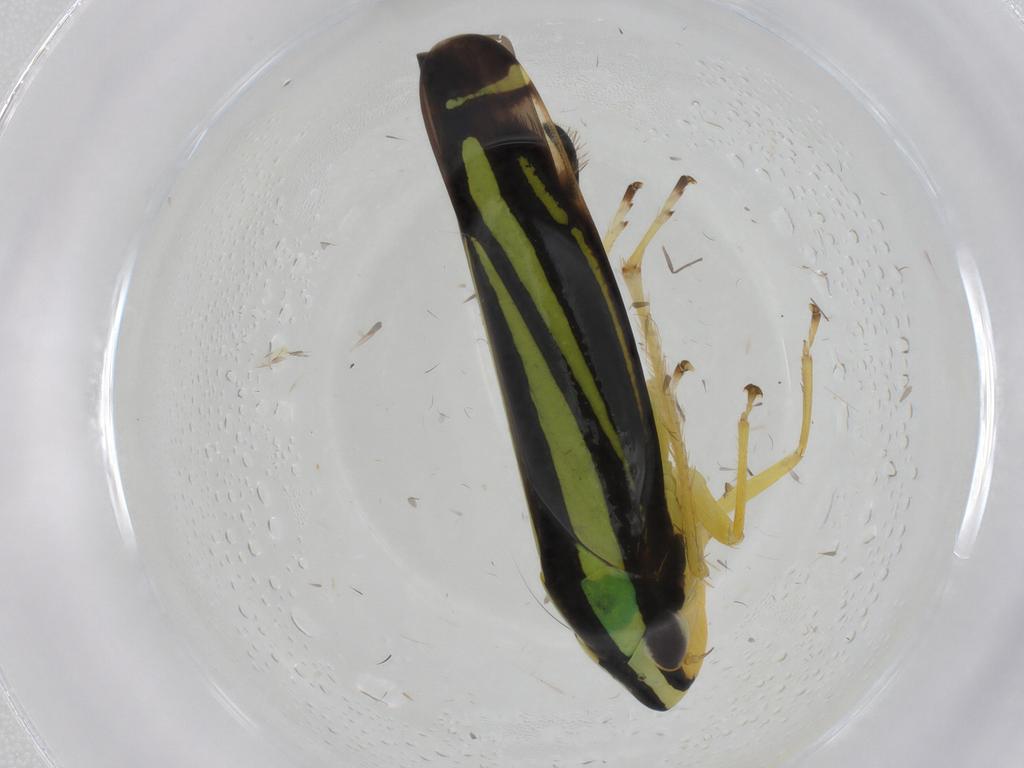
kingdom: Animalia
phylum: Arthropoda
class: Insecta
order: Hemiptera
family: Cicadellidae
